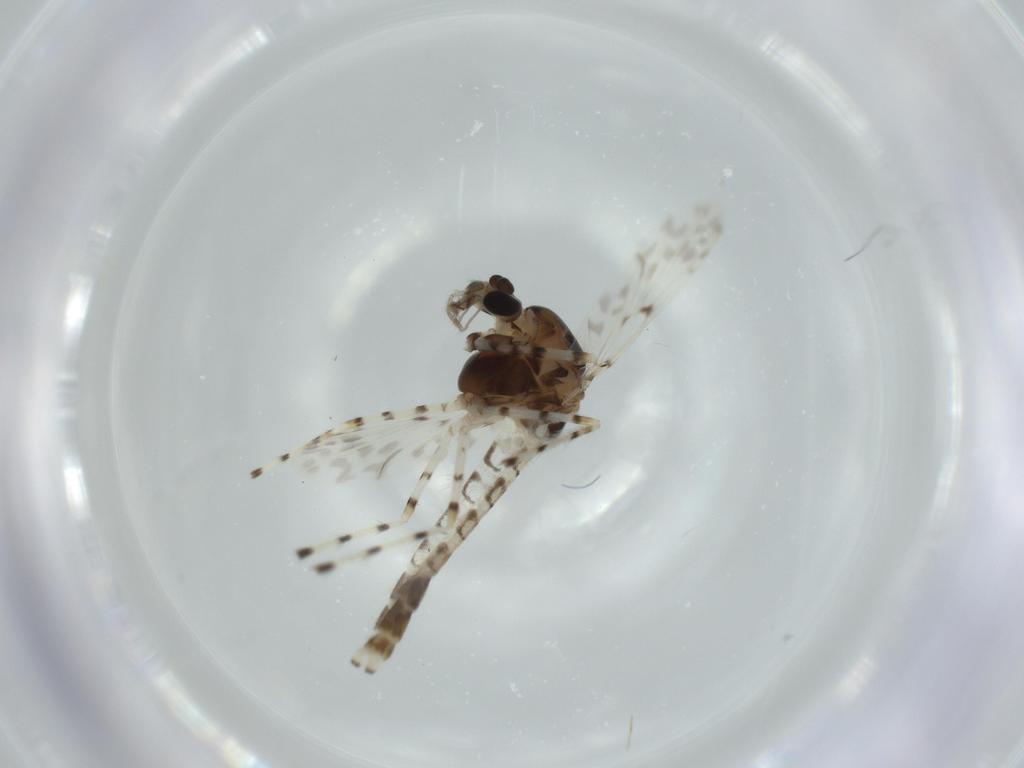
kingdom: Animalia
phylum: Arthropoda
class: Insecta
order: Diptera
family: Chironomidae
